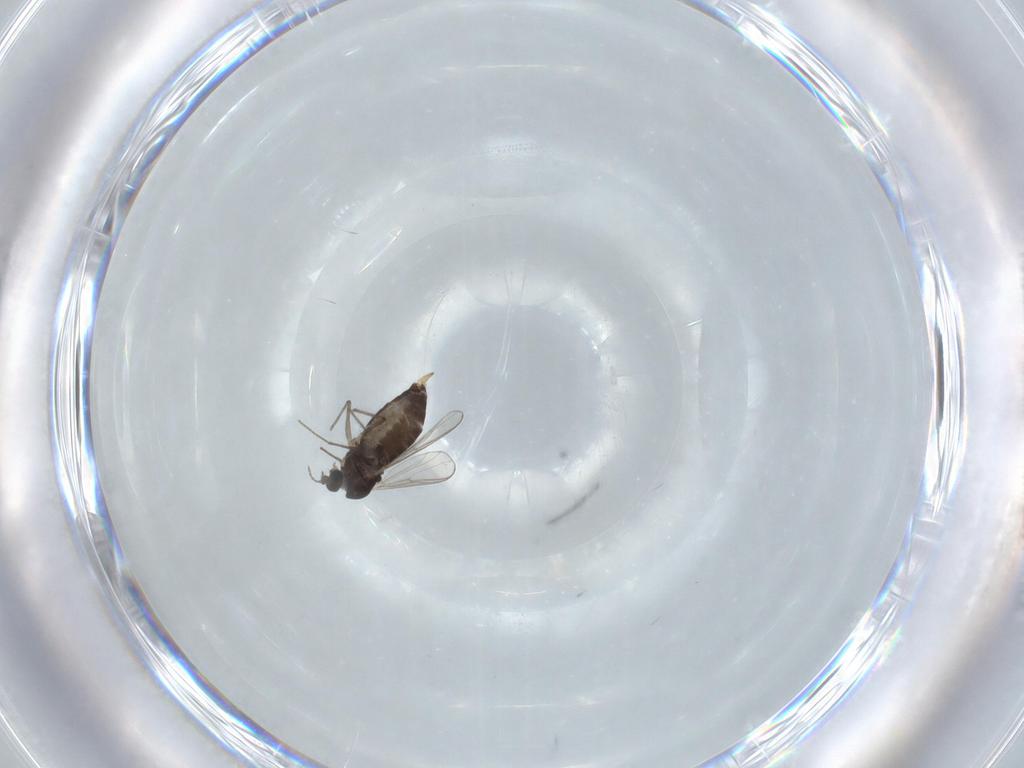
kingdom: Animalia
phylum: Arthropoda
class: Insecta
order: Diptera
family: Chironomidae
